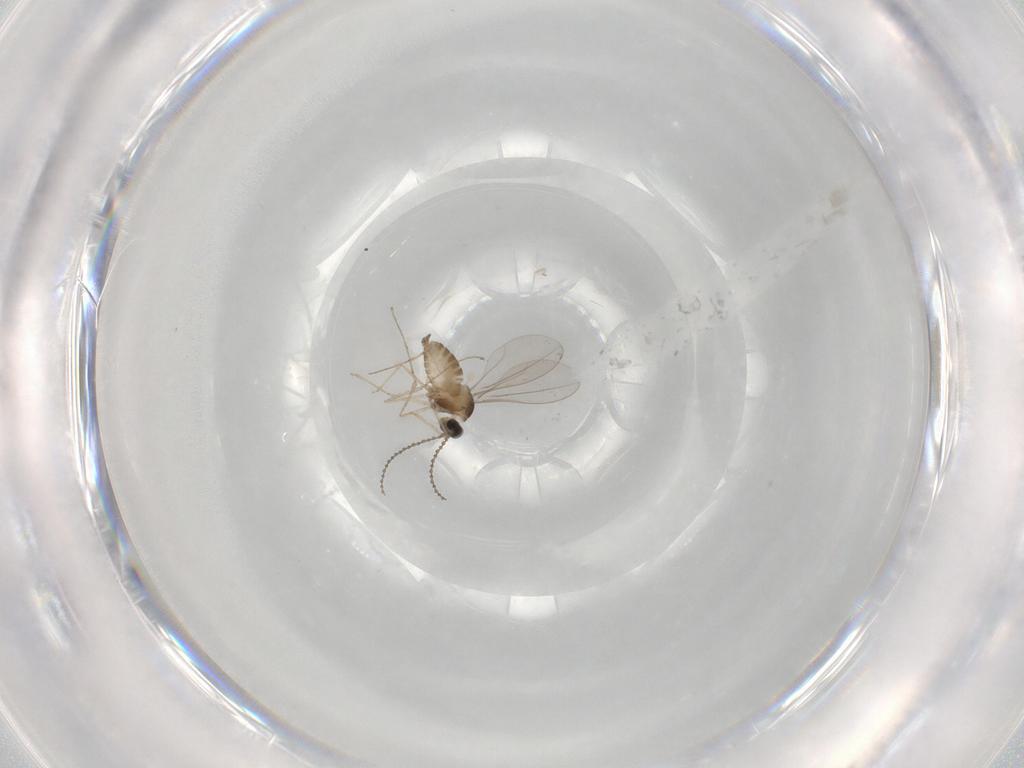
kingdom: Animalia
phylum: Arthropoda
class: Insecta
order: Diptera
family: Cecidomyiidae
